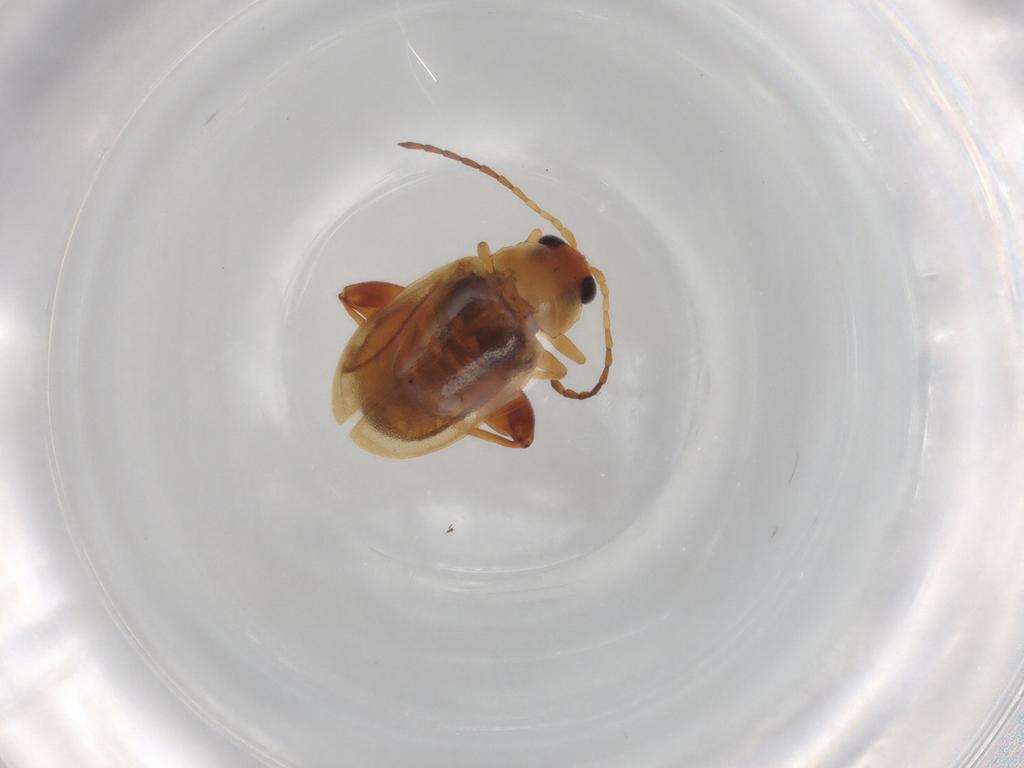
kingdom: Animalia
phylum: Arthropoda
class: Insecta
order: Coleoptera
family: Chrysomelidae
